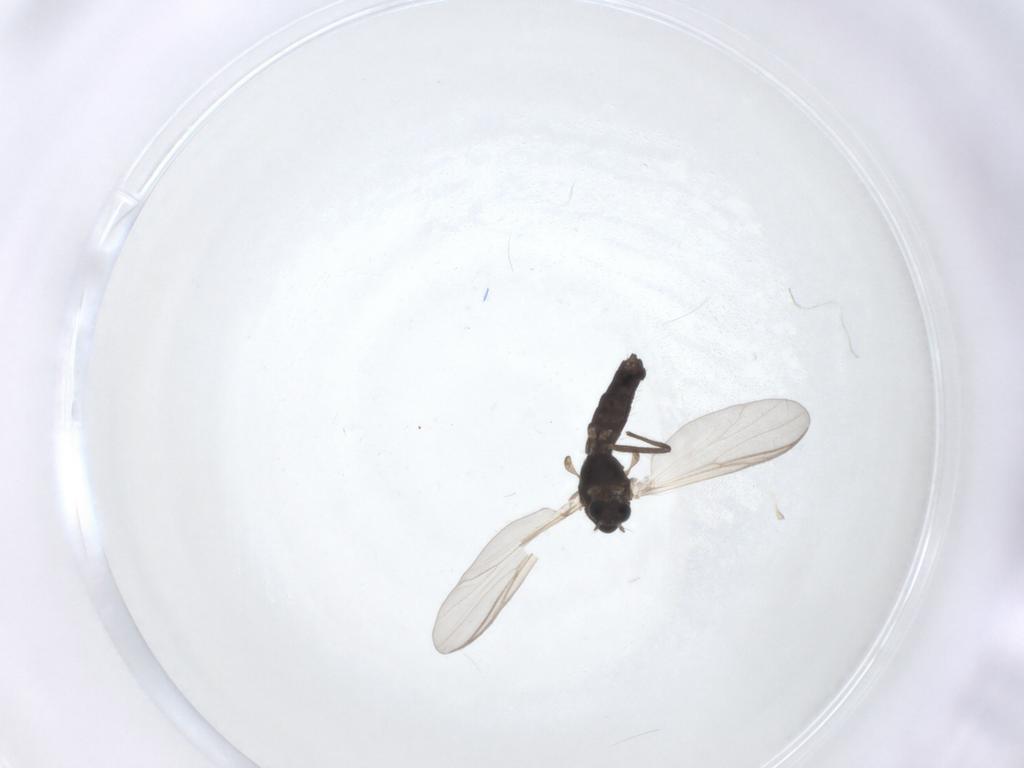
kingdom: Animalia
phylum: Arthropoda
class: Insecta
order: Diptera
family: Chironomidae
